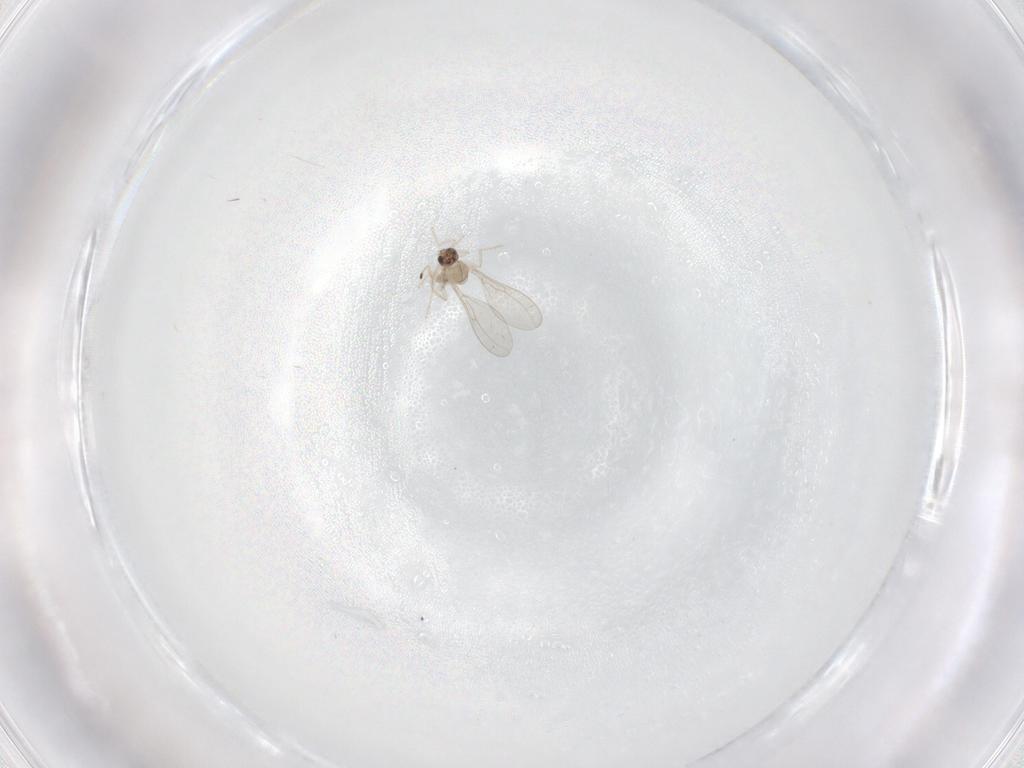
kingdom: Animalia
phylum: Arthropoda
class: Insecta
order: Diptera
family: Cecidomyiidae
